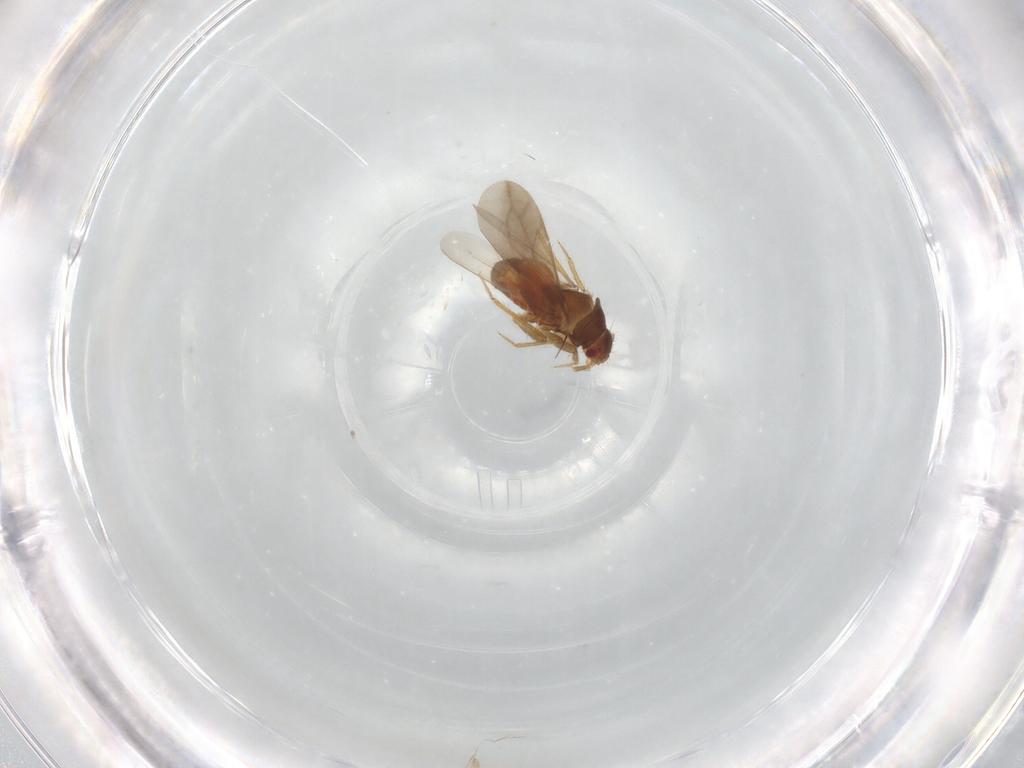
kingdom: Animalia
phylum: Arthropoda
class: Insecta
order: Hemiptera
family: Ceratocombidae
